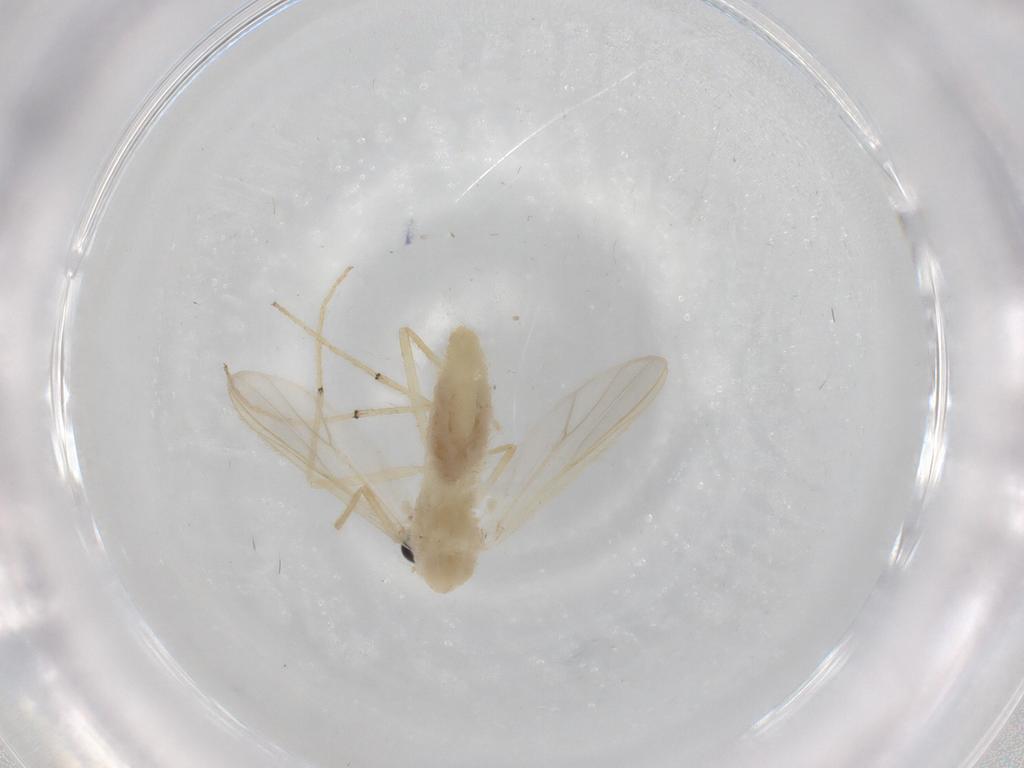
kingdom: Animalia
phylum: Arthropoda
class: Insecta
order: Diptera
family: Chironomidae
